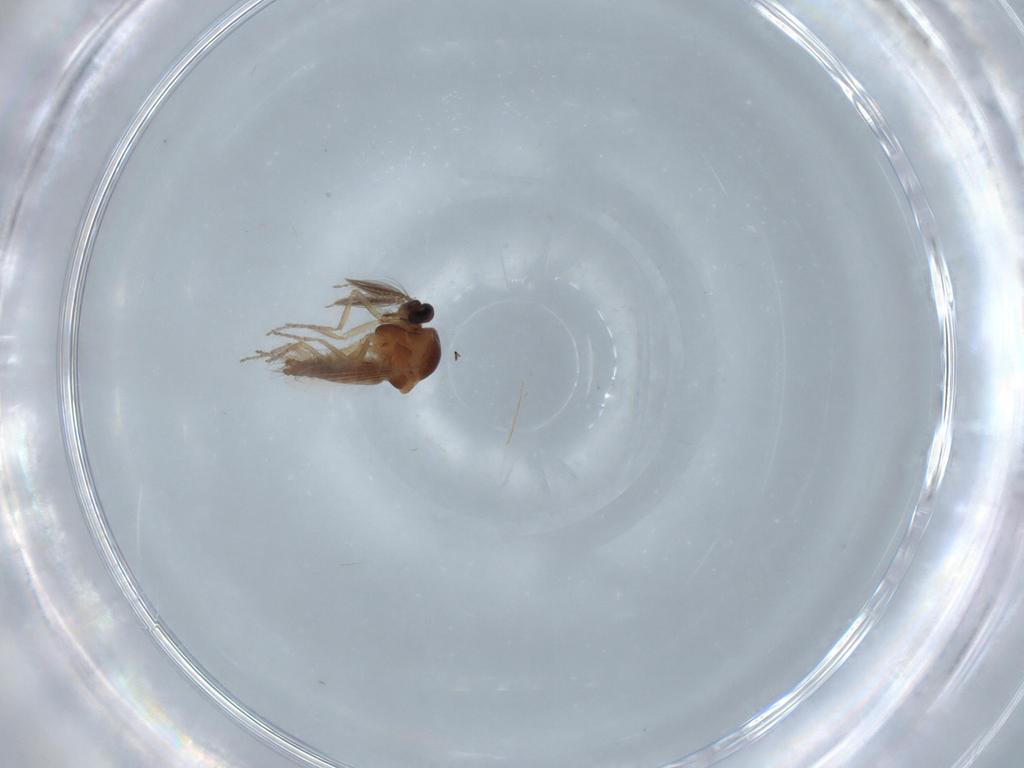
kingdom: Animalia
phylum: Arthropoda
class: Insecta
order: Diptera
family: Ceratopogonidae
